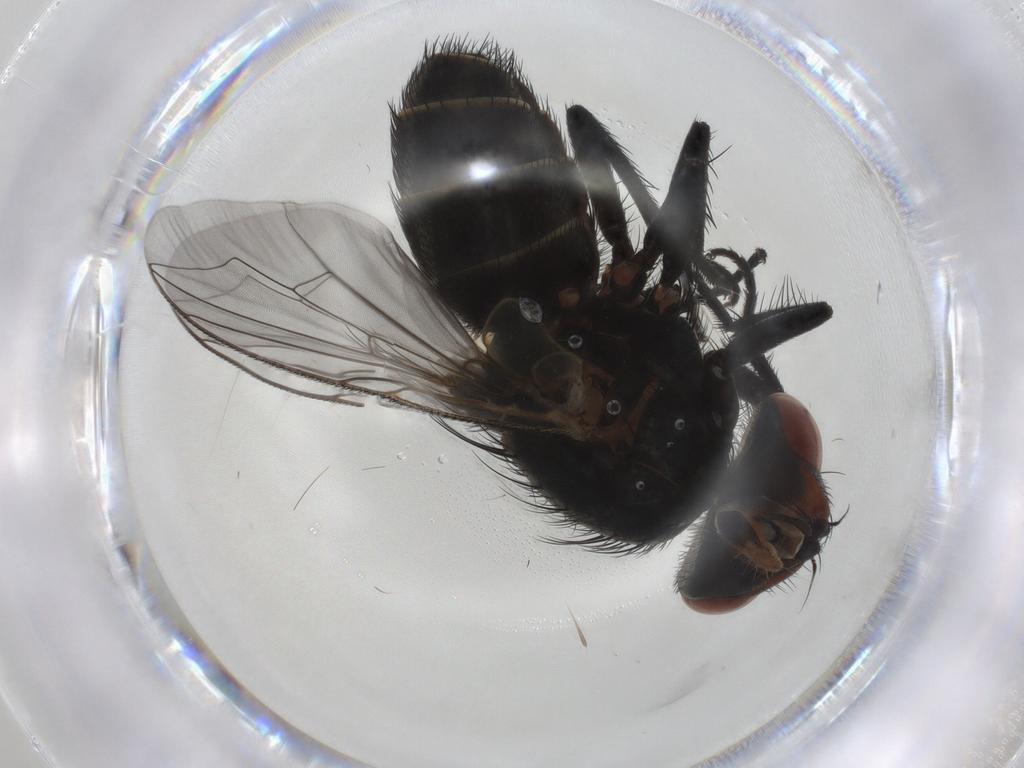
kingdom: Animalia
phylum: Arthropoda
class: Insecta
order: Diptera
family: Sarcophagidae
